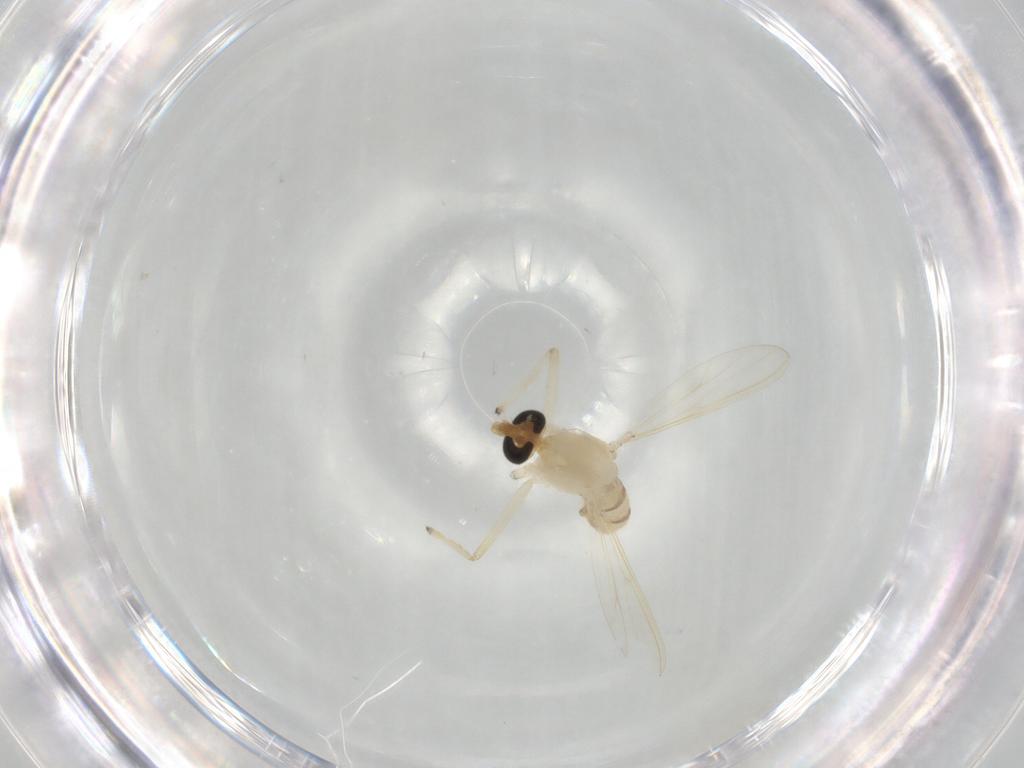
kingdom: Animalia
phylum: Arthropoda
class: Insecta
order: Diptera
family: Chironomidae
